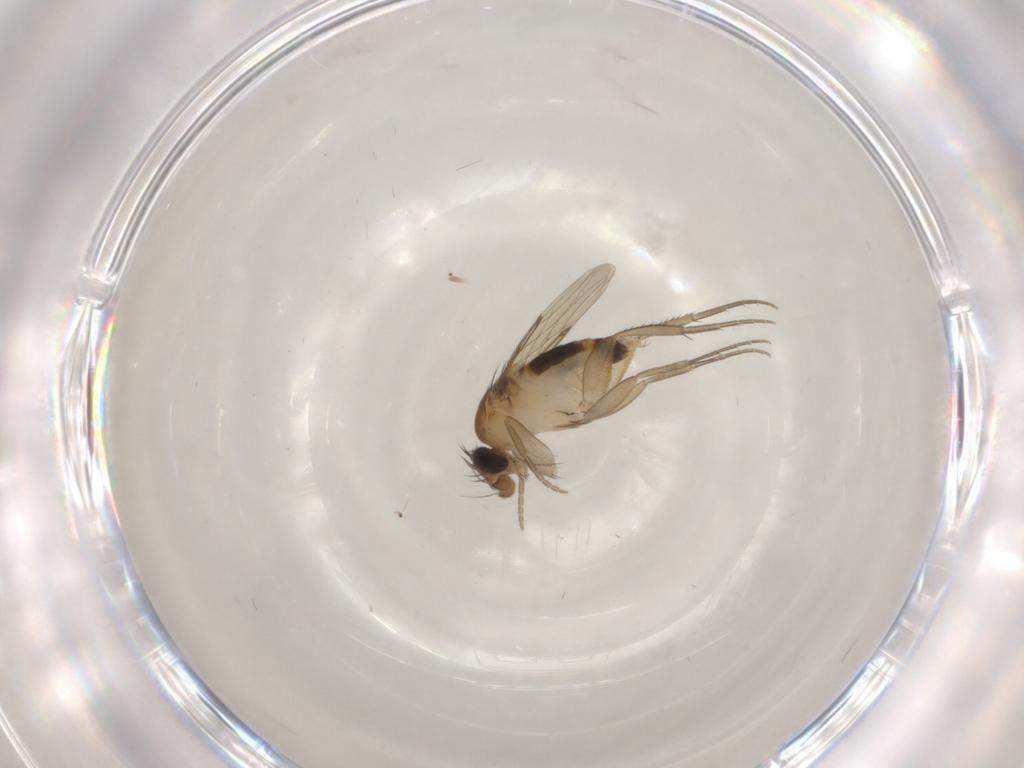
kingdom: Animalia
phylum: Arthropoda
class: Insecta
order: Diptera
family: Phoridae
